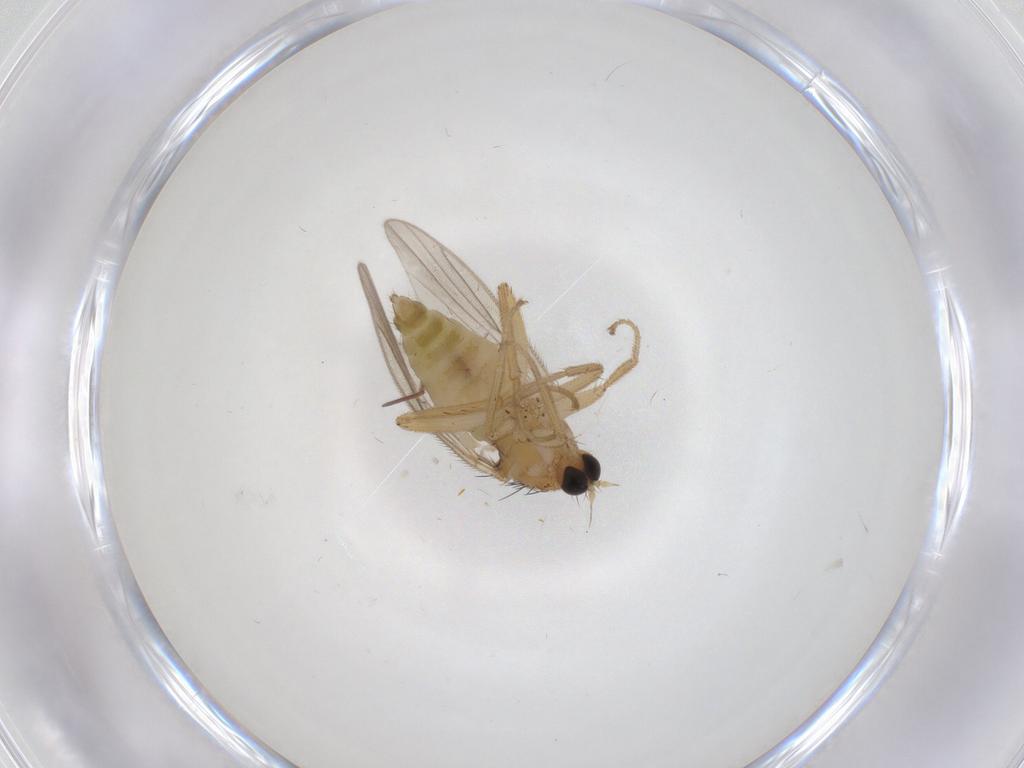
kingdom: Animalia
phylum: Arthropoda
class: Insecta
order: Diptera
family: Hybotidae
